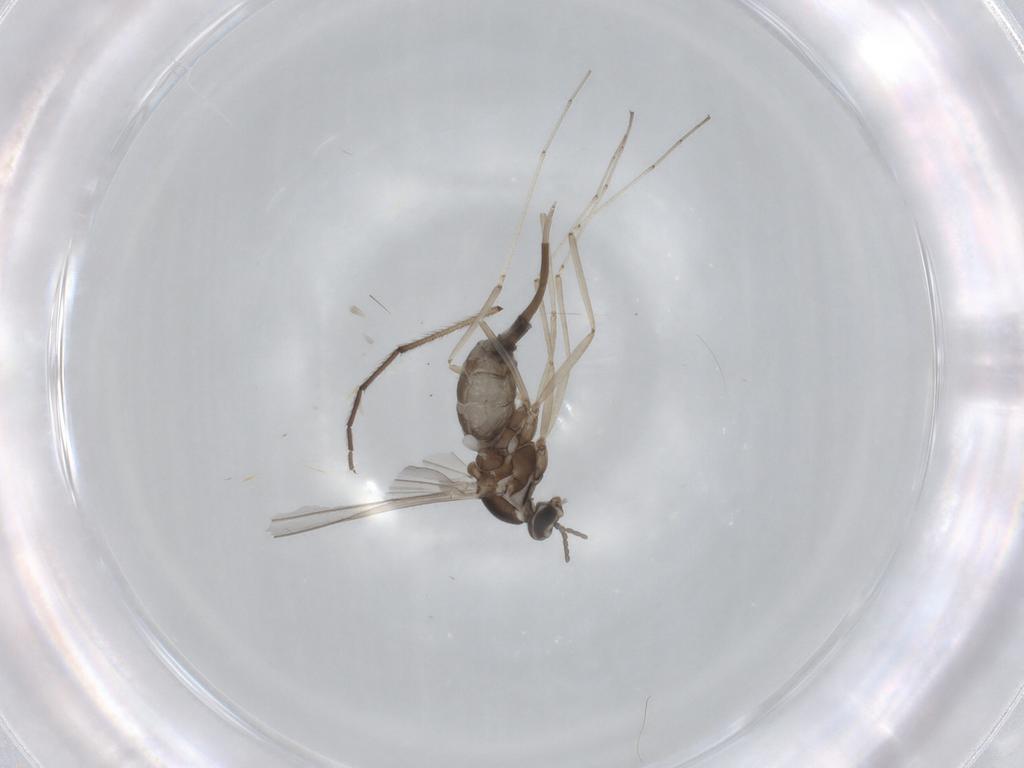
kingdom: Animalia
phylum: Arthropoda
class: Insecta
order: Diptera
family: Cecidomyiidae
